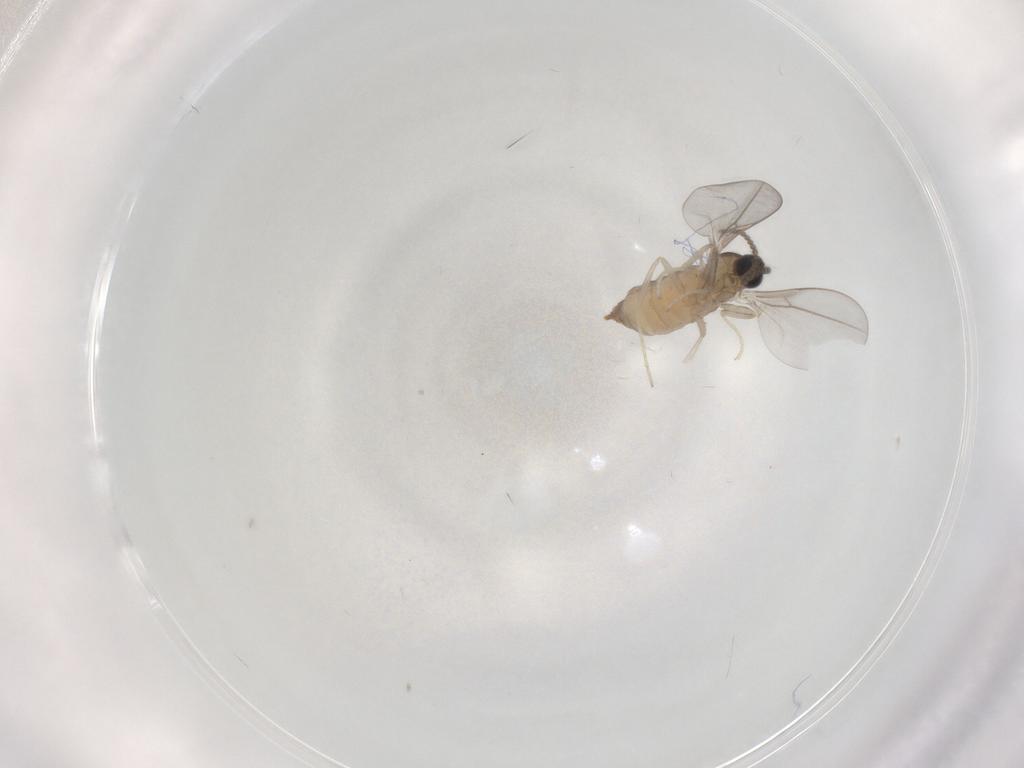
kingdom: Animalia
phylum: Arthropoda
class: Insecta
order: Diptera
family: Cecidomyiidae
